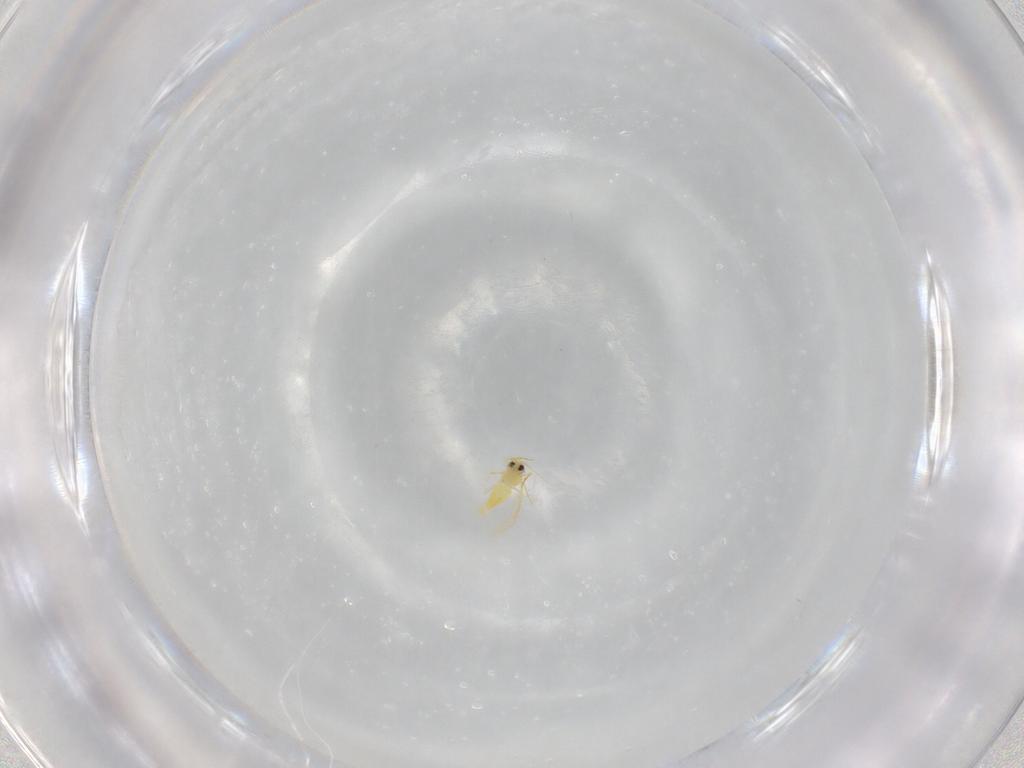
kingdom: Animalia
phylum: Arthropoda
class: Insecta
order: Hemiptera
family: Aleyrodidae
